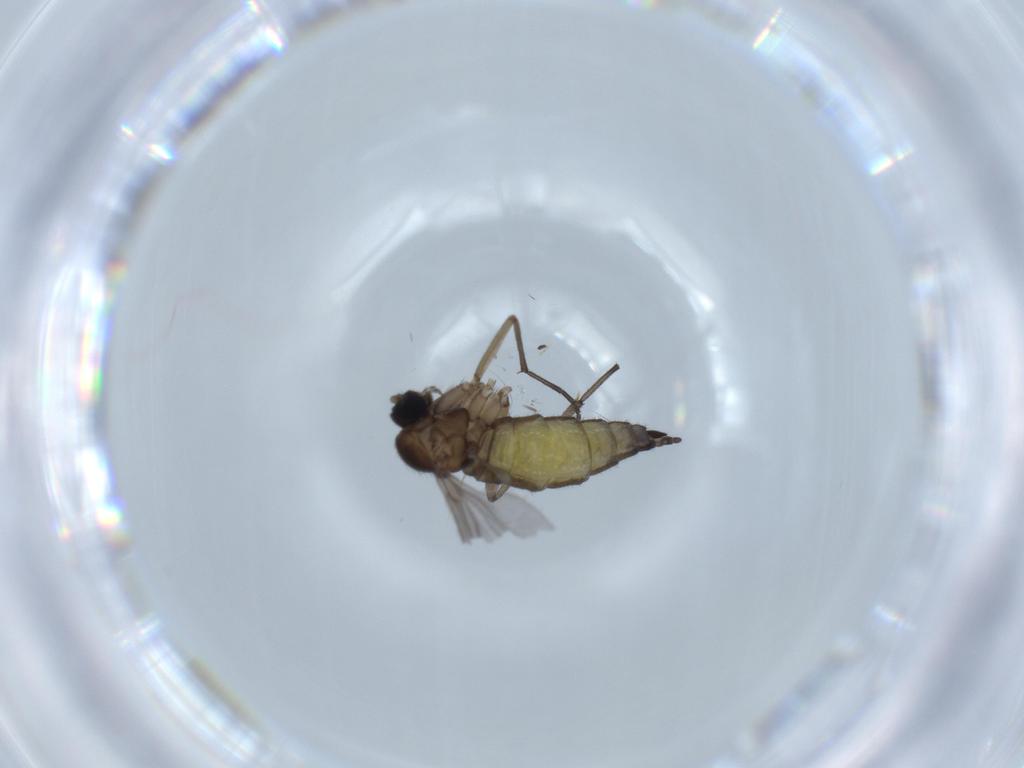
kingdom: Animalia
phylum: Arthropoda
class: Insecta
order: Diptera
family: Sciaridae
